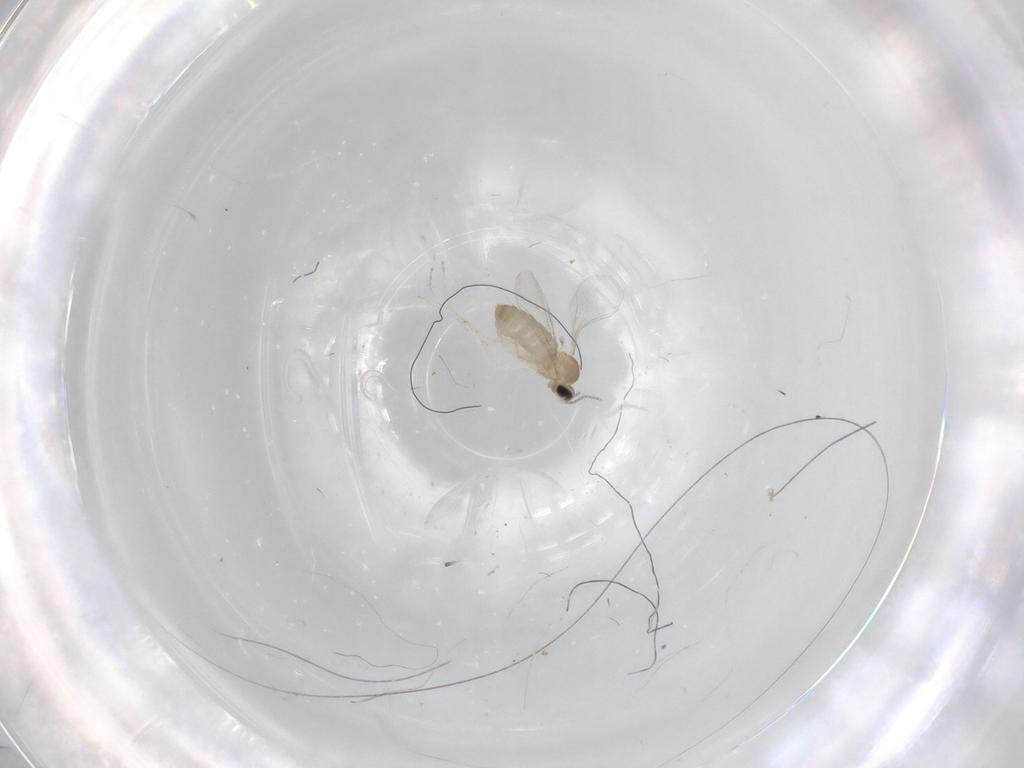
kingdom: Animalia
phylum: Arthropoda
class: Insecta
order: Diptera
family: Cecidomyiidae
